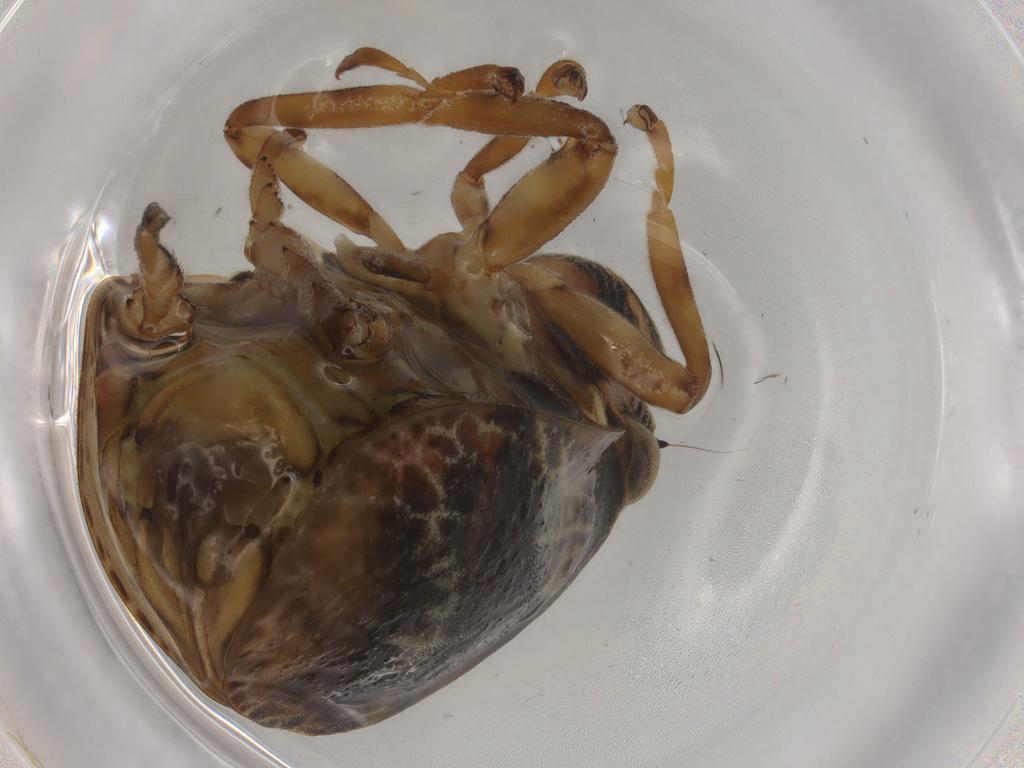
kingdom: Animalia
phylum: Arthropoda
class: Insecta
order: Hemiptera
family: Aphrophoridae
